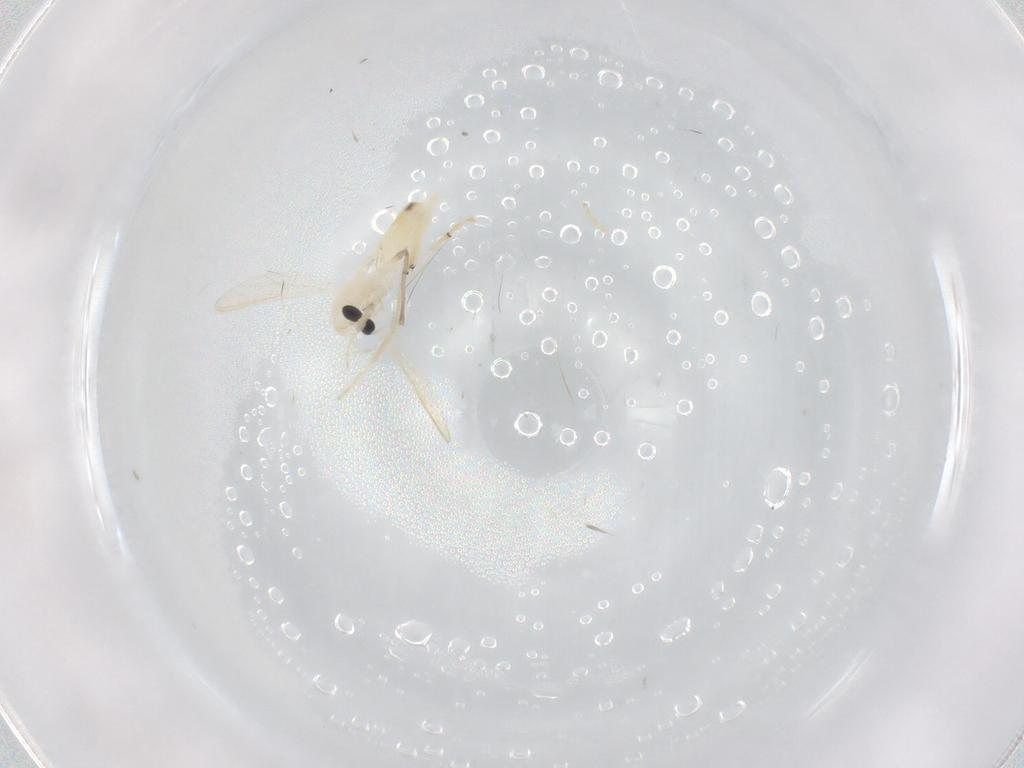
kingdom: Animalia
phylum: Arthropoda
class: Insecta
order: Diptera
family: Chironomidae
